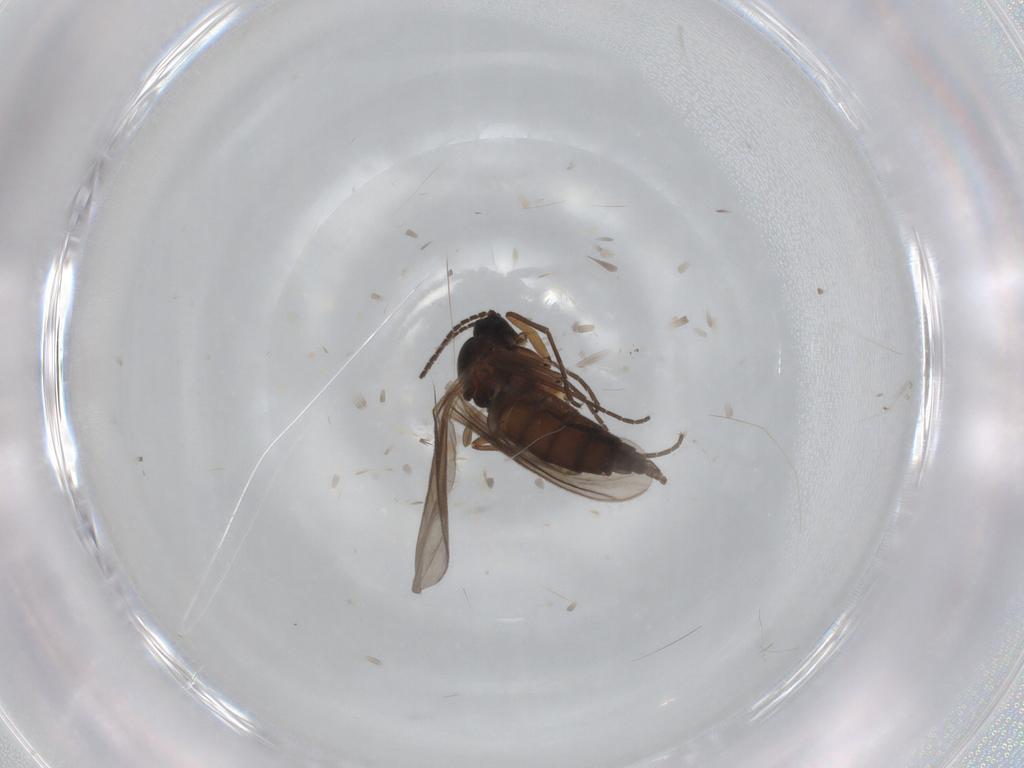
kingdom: Animalia
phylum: Arthropoda
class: Insecta
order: Diptera
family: Sciaridae
